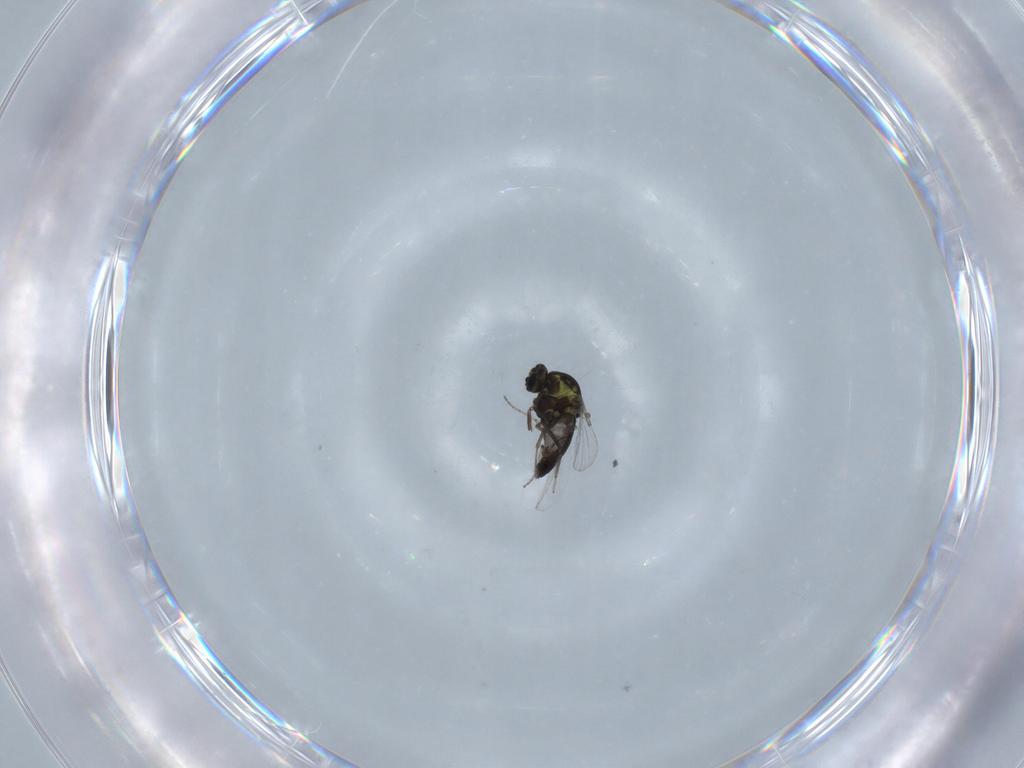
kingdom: Animalia
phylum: Arthropoda
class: Insecta
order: Diptera
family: Ceratopogonidae
